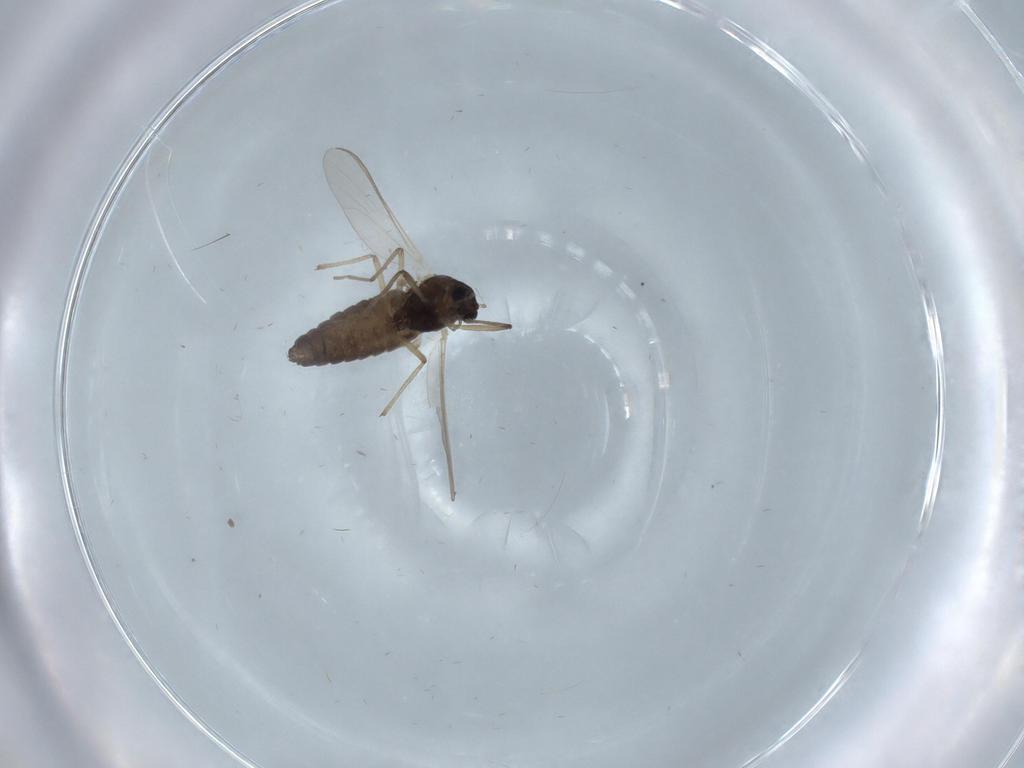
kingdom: Animalia
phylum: Arthropoda
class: Insecta
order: Diptera
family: Chironomidae
